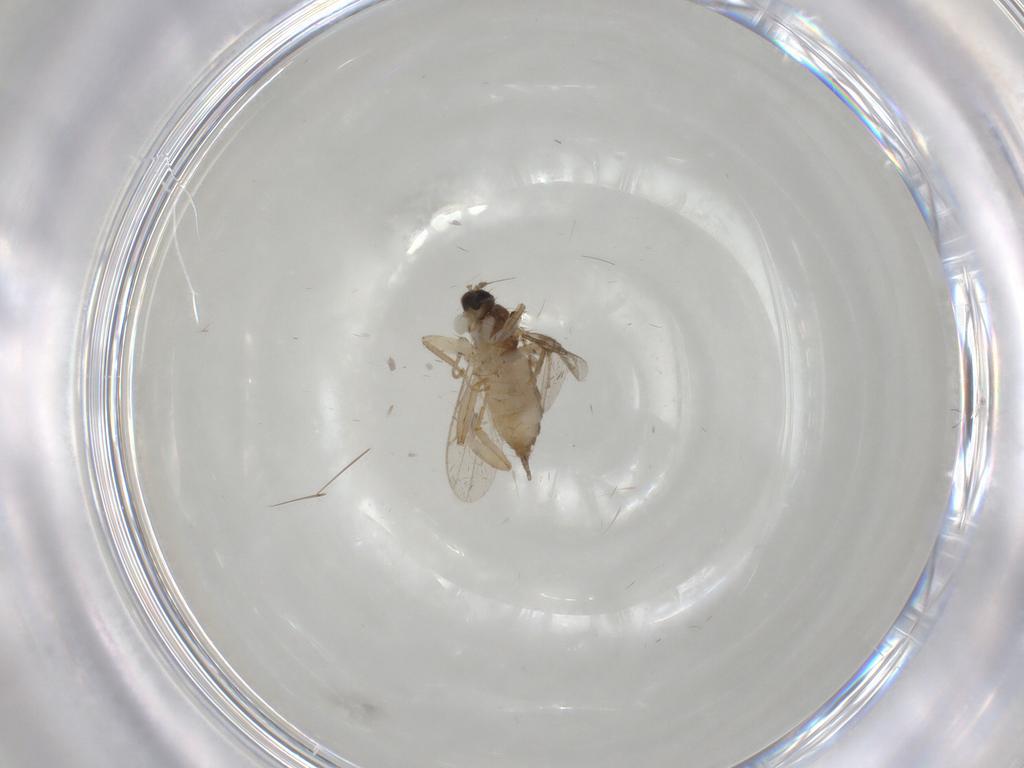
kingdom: Animalia
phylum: Arthropoda
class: Insecta
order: Diptera
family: Hybotidae
